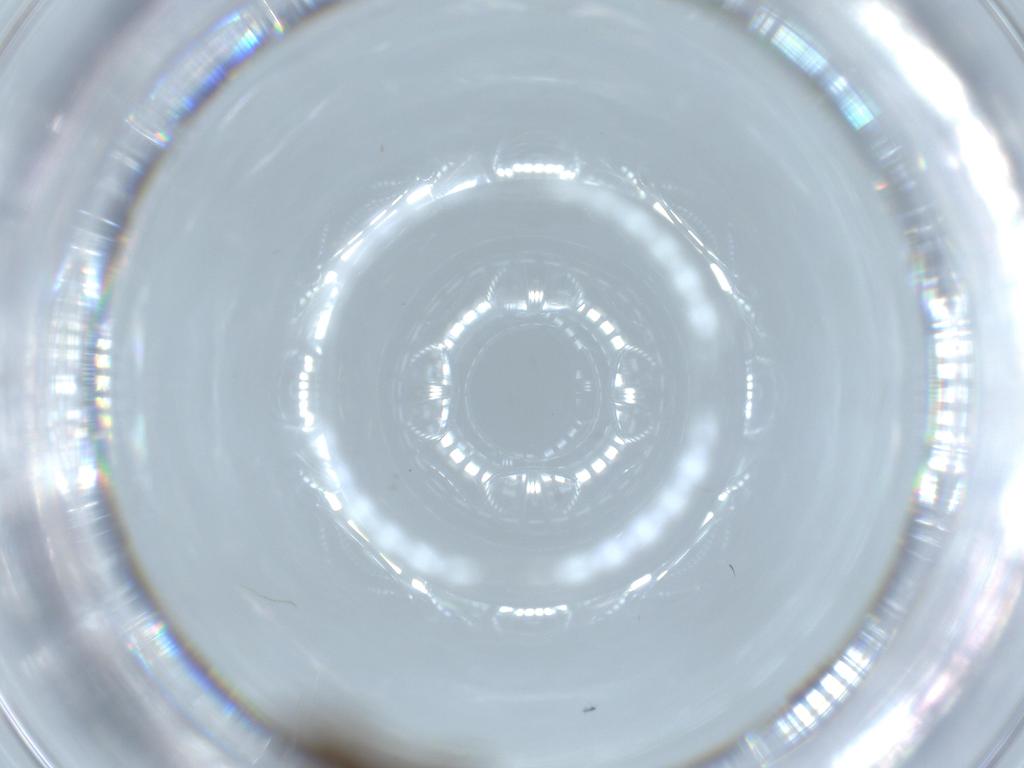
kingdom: Animalia
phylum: Arthropoda
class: Insecta
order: Diptera
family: Cecidomyiidae
